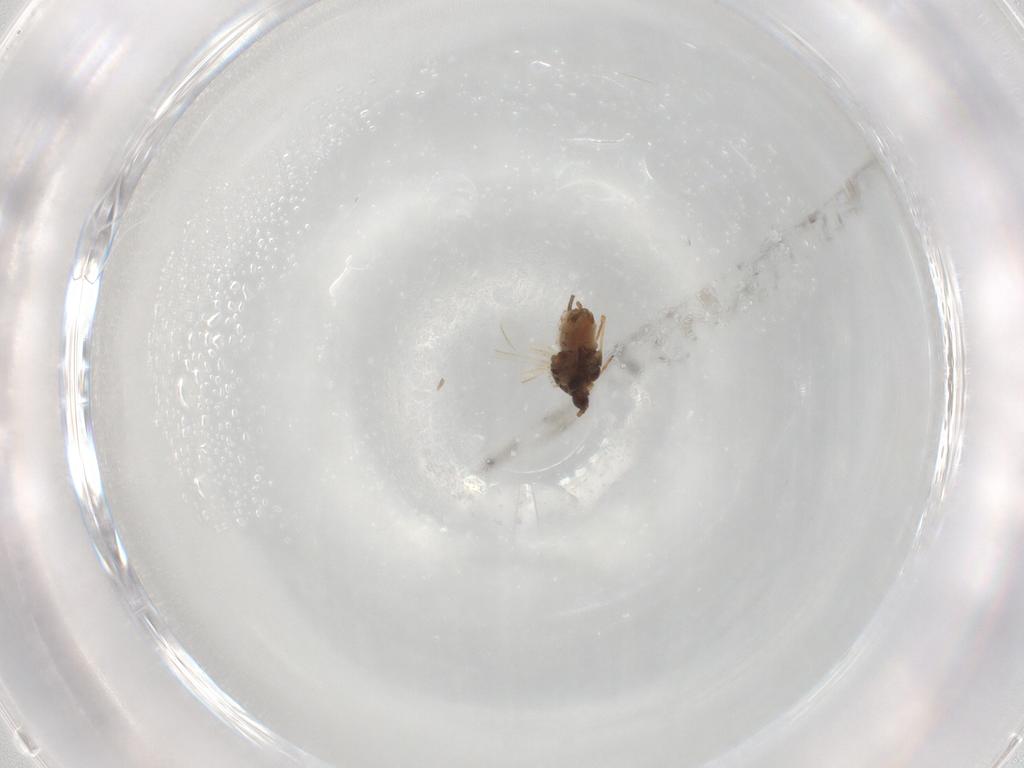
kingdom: Animalia
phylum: Arthropoda
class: Insecta
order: Hemiptera
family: Aphididae
